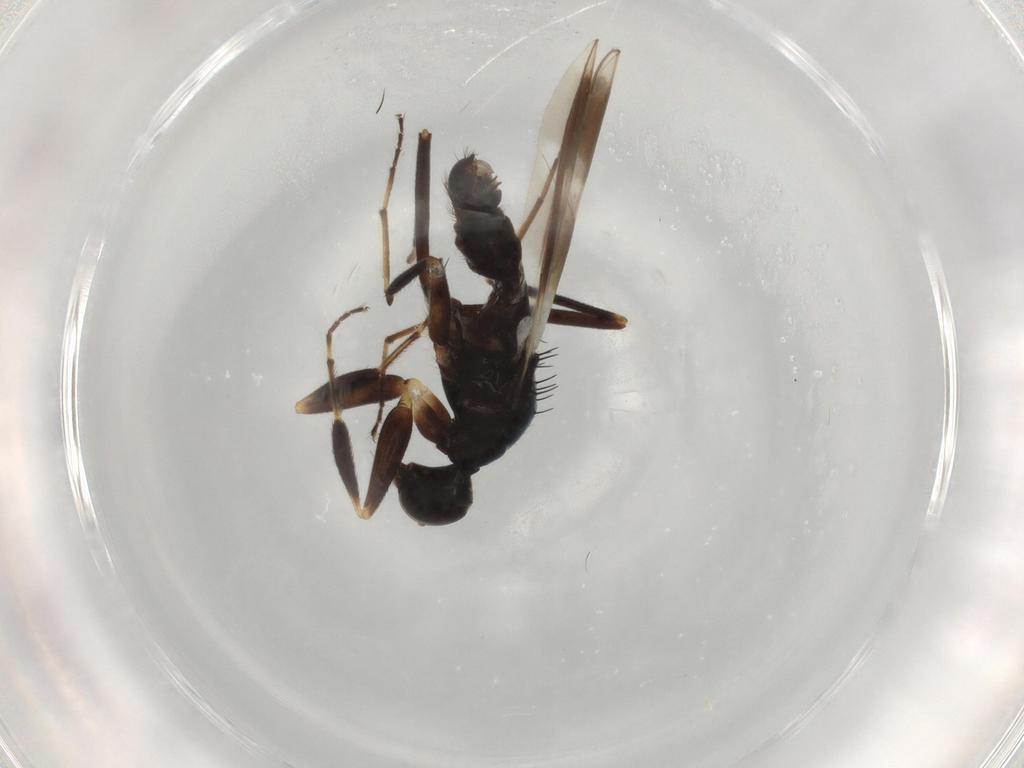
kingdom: Animalia
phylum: Arthropoda
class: Insecta
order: Diptera
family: Hybotidae
